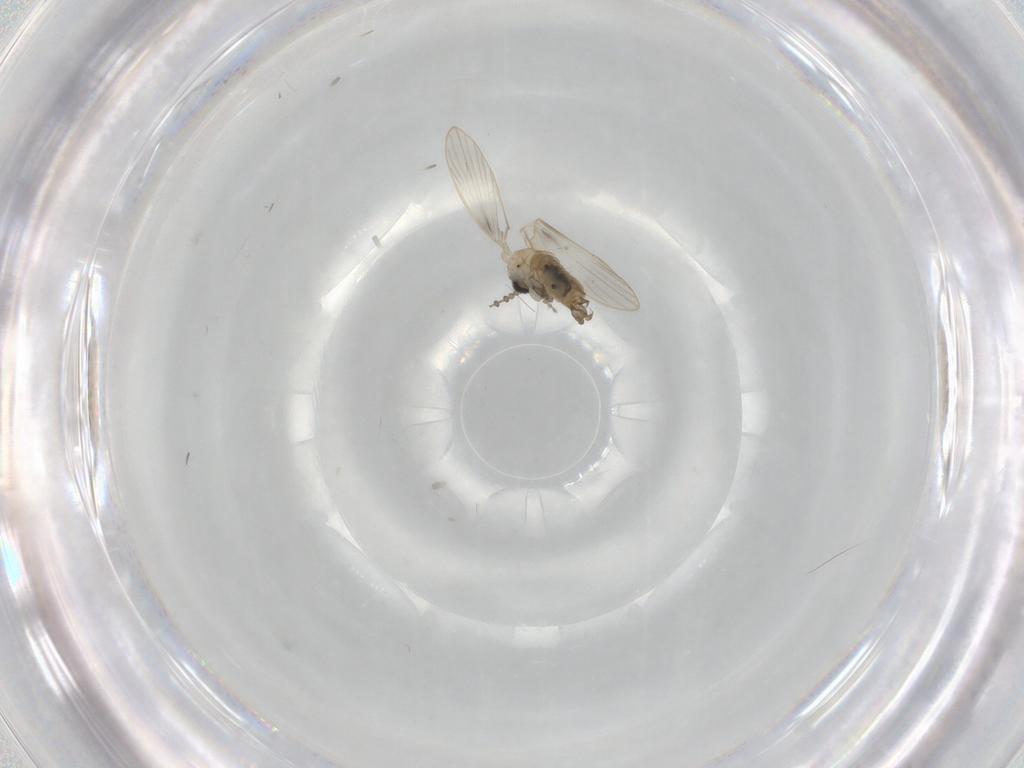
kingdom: Animalia
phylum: Arthropoda
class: Insecta
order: Diptera
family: Psychodidae
